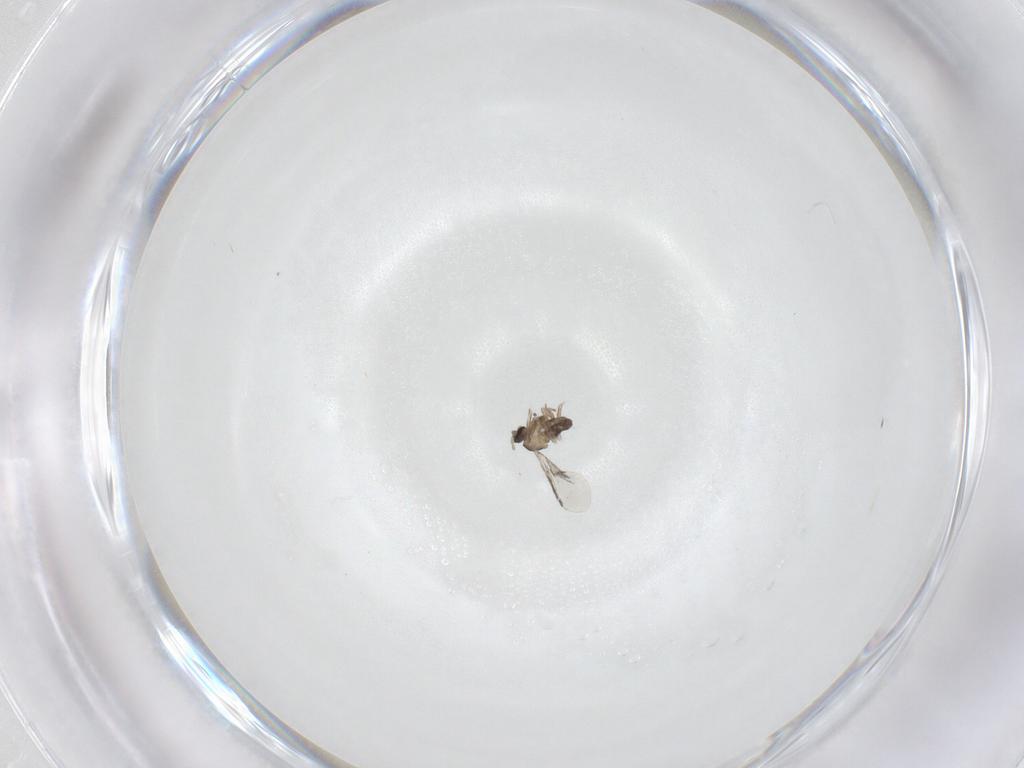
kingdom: Animalia
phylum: Arthropoda
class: Insecta
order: Diptera
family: Cecidomyiidae
